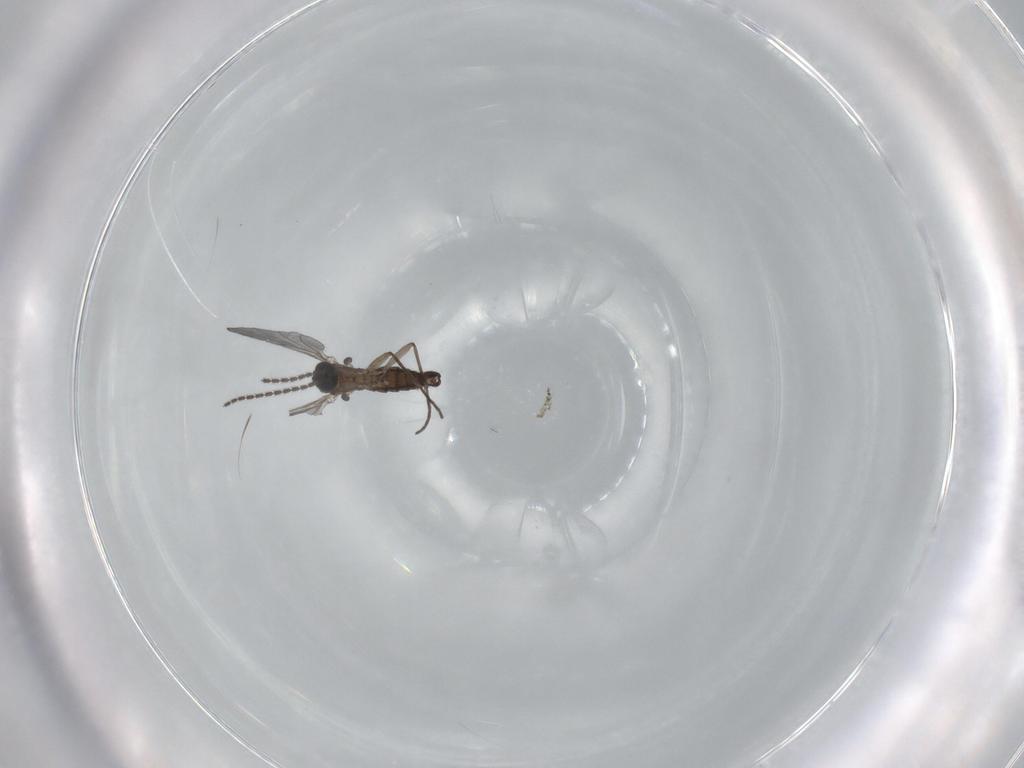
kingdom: Animalia
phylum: Arthropoda
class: Insecta
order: Diptera
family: Sciaridae
